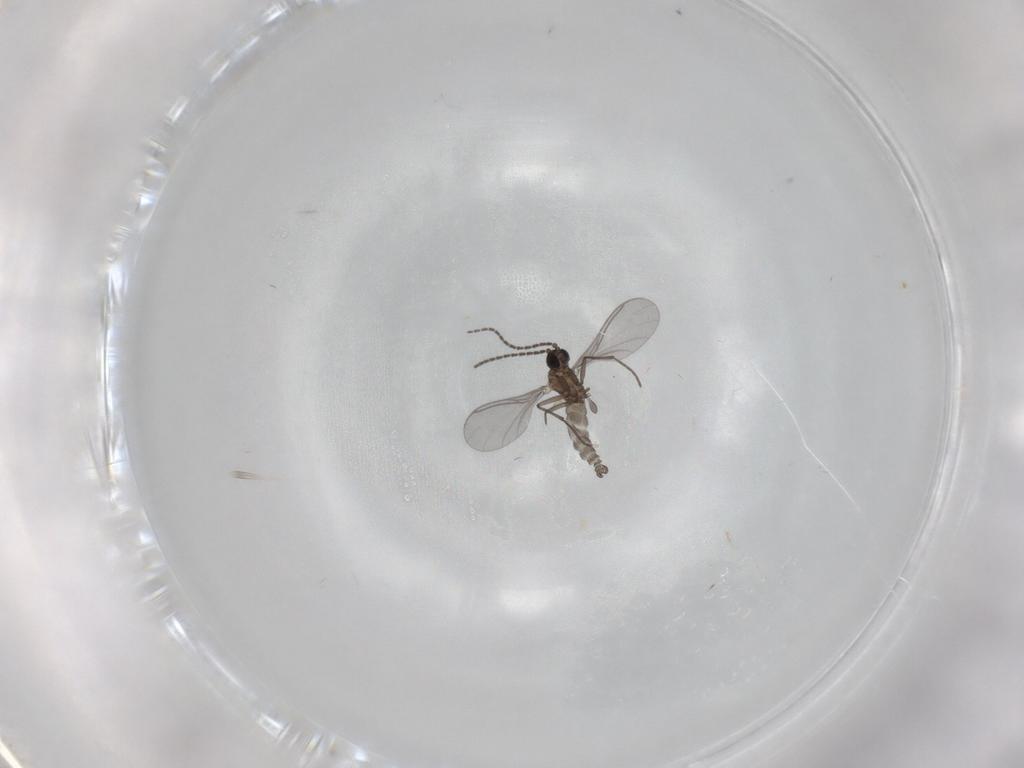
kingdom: Animalia
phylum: Arthropoda
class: Insecta
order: Diptera
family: Sciaridae
